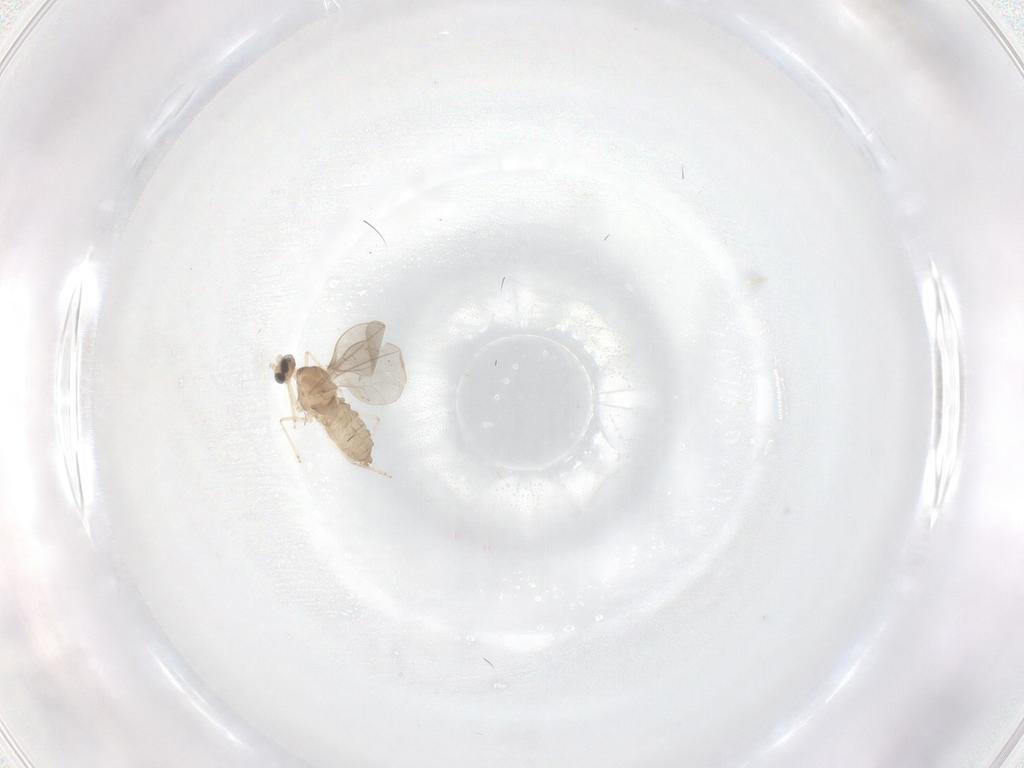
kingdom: Animalia
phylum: Arthropoda
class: Insecta
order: Diptera
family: Cecidomyiidae
